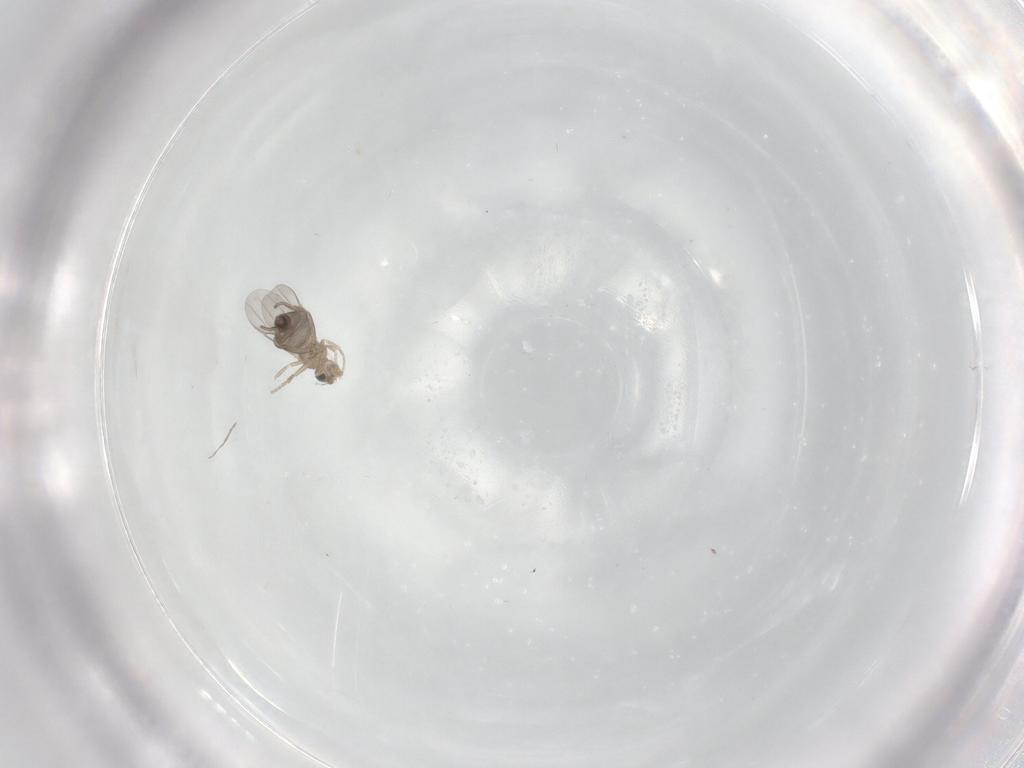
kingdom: Animalia
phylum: Arthropoda
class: Insecta
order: Diptera
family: Phoridae
